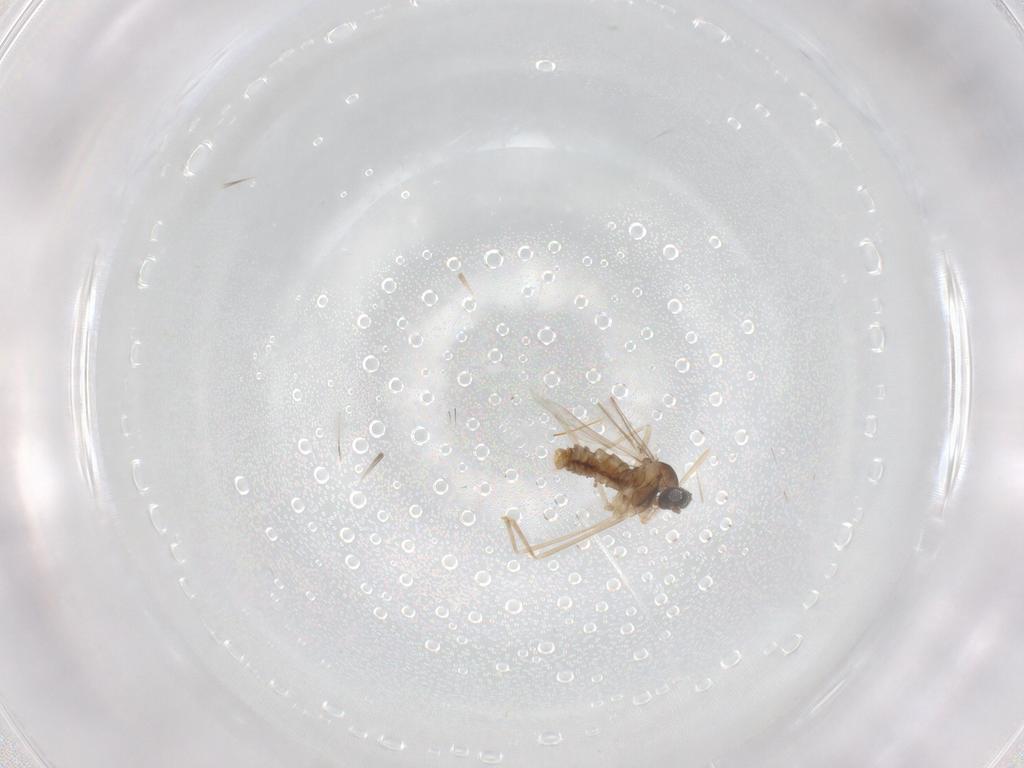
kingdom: Animalia
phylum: Arthropoda
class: Insecta
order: Diptera
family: Cecidomyiidae
